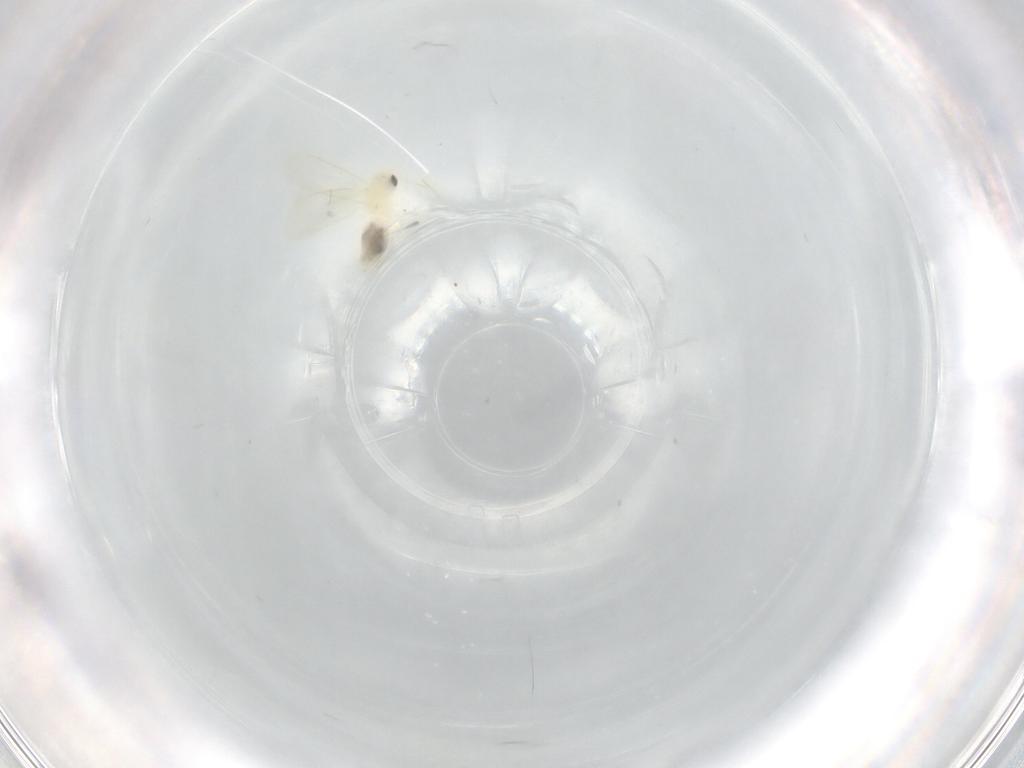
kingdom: Animalia
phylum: Arthropoda
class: Insecta
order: Hemiptera
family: Aleyrodidae
